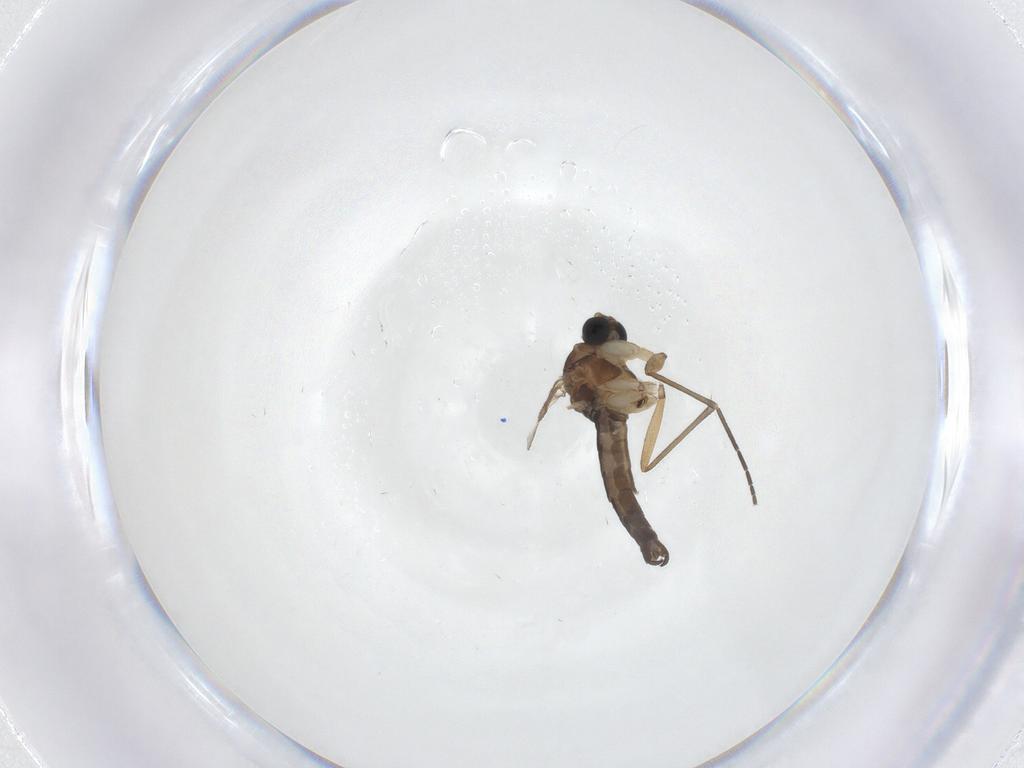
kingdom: Animalia
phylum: Arthropoda
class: Insecta
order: Diptera
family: Sciaridae
